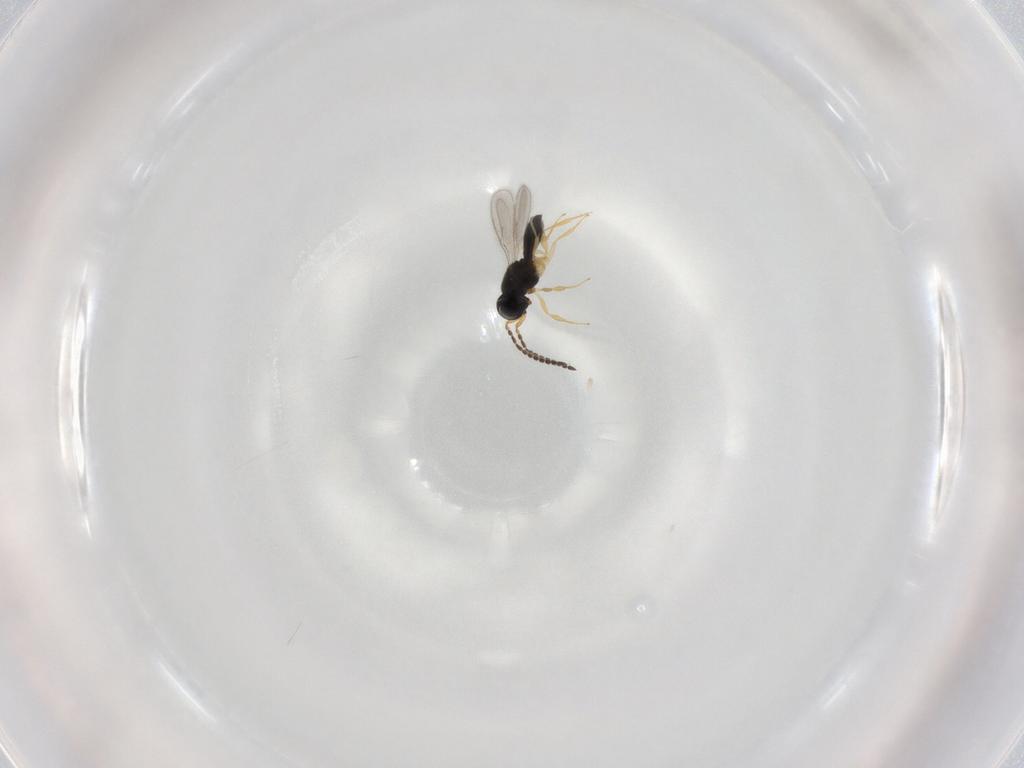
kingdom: Animalia
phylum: Arthropoda
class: Insecta
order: Hymenoptera
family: Scelionidae
